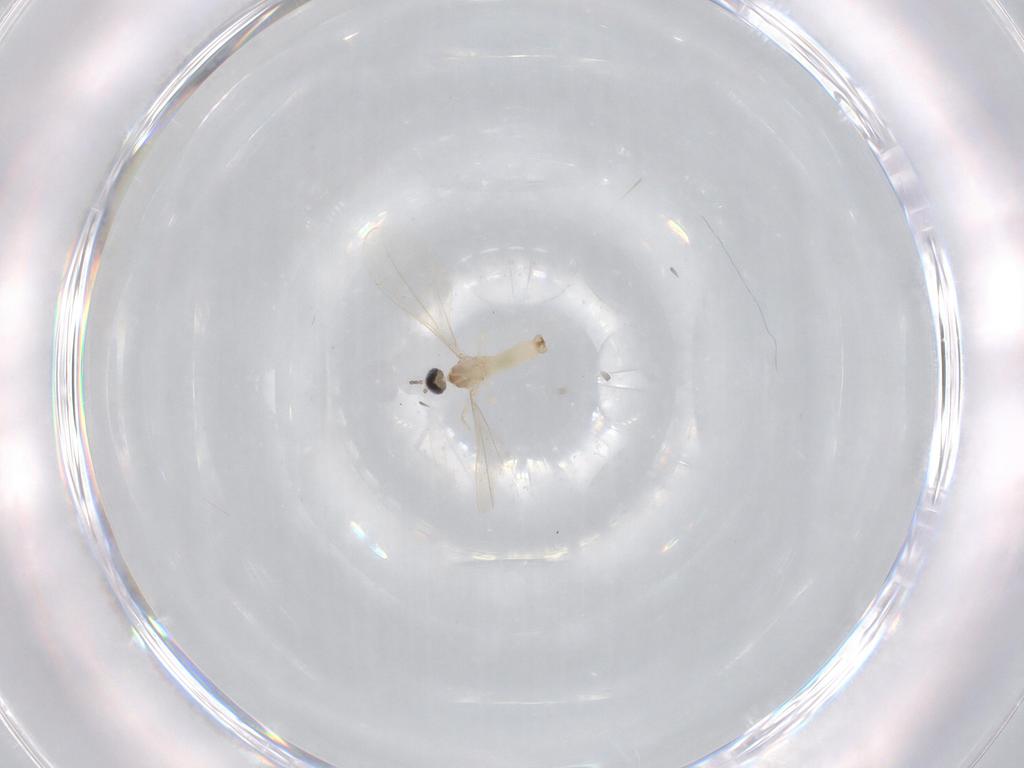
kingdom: Animalia
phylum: Arthropoda
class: Insecta
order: Diptera
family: Cecidomyiidae
